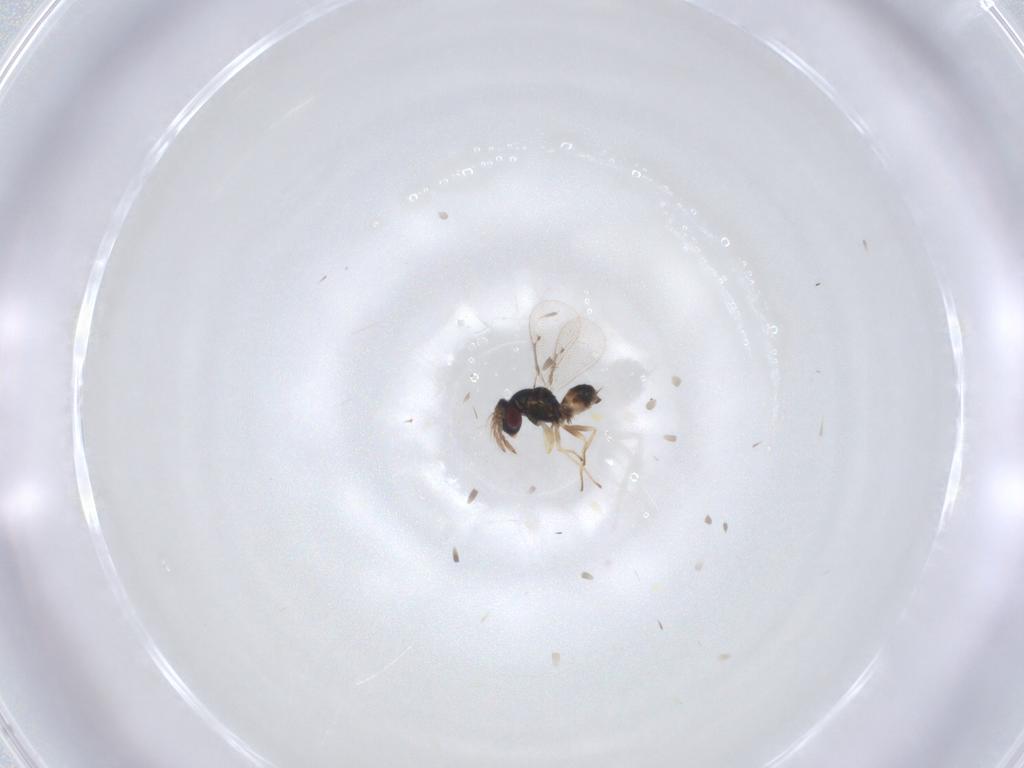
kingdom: Animalia
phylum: Arthropoda
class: Insecta
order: Hymenoptera
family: Eulophidae
